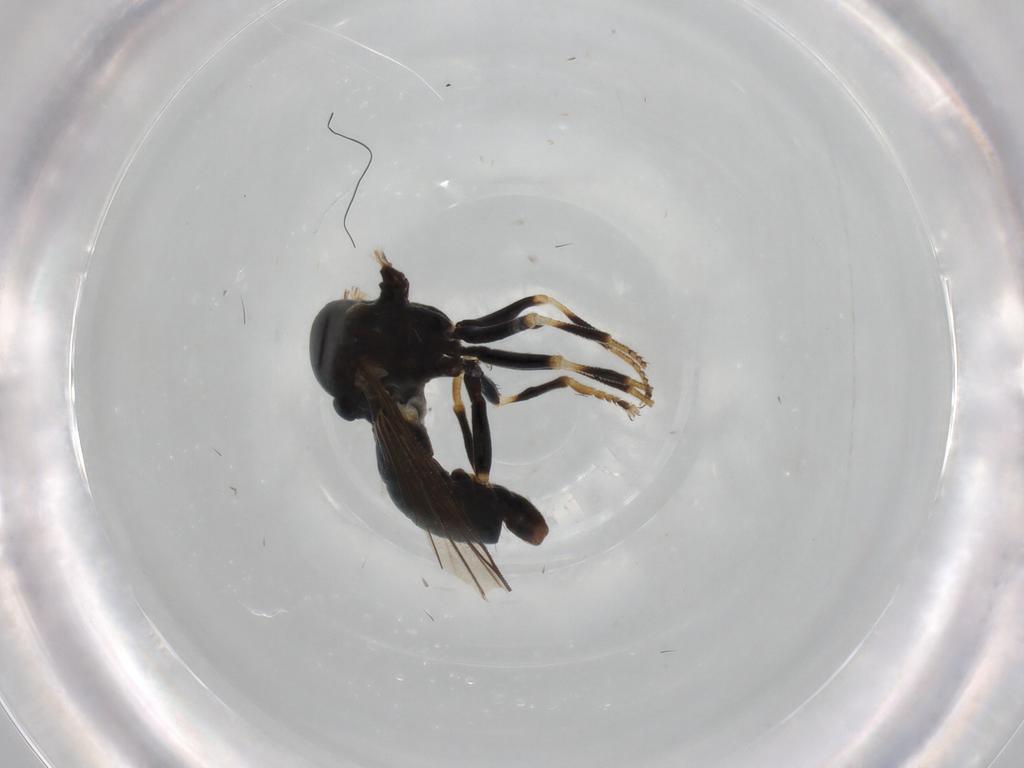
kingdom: Animalia
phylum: Arthropoda
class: Insecta
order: Diptera
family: Pipunculidae
